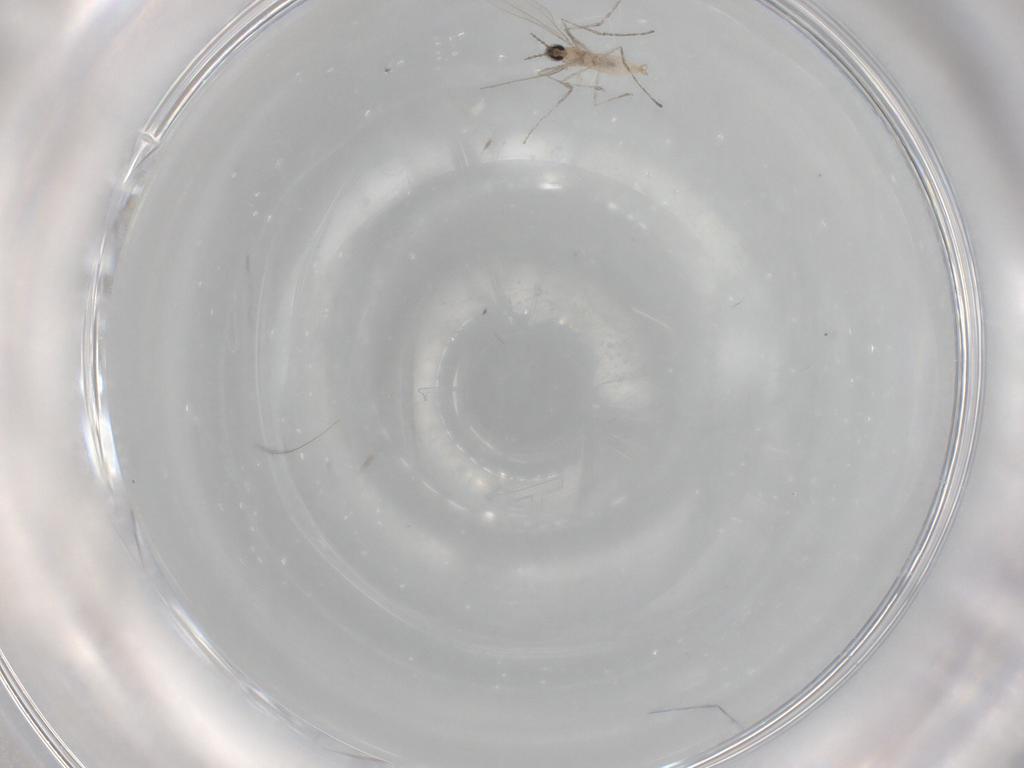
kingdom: Animalia
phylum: Arthropoda
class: Insecta
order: Diptera
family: Cecidomyiidae
